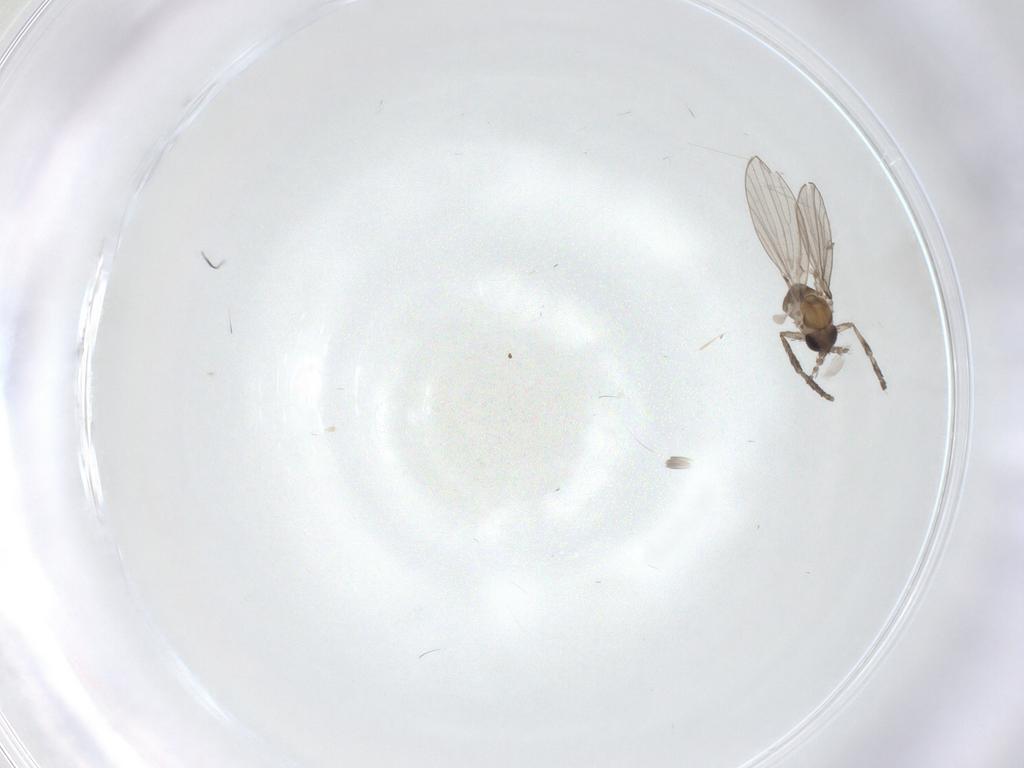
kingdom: Animalia
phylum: Arthropoda
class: Insecta
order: Diptera
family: Psychodidae
